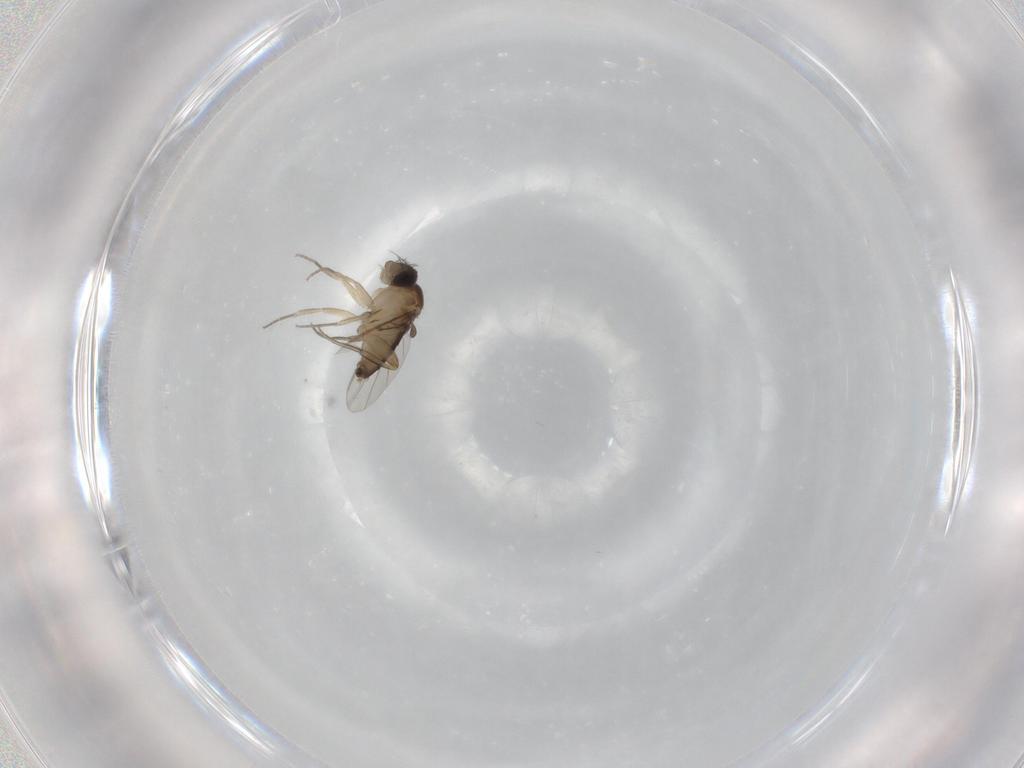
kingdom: Animalia
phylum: Arthropoda
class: Insecta
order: Diptera
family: Phoridae
